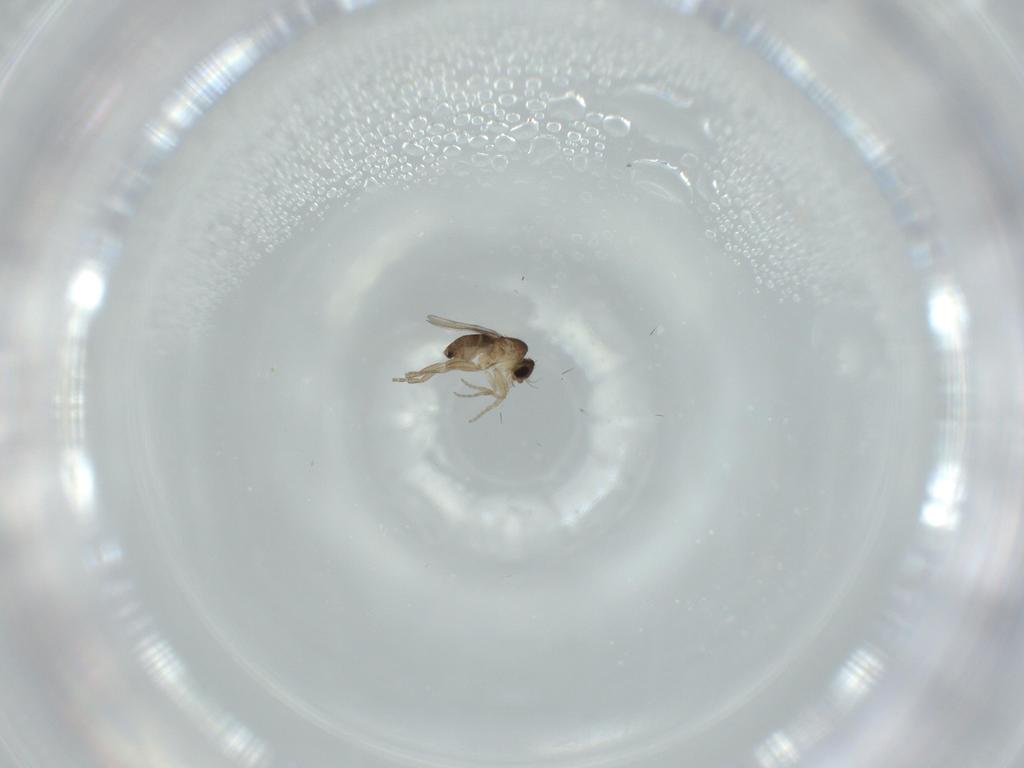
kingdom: Animalia
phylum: Arthropoda
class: Insecta
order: Diptera
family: Phoridae
